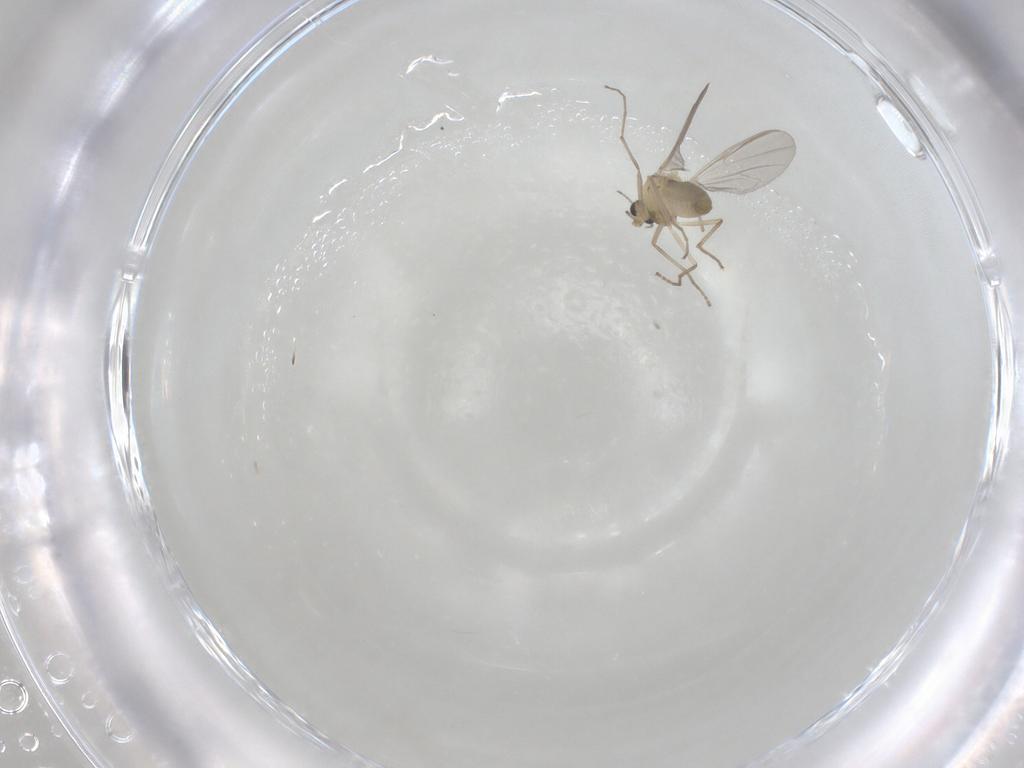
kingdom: Animalia
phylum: Arthropoda
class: Insecta
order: Diptera
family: Chironomidae
